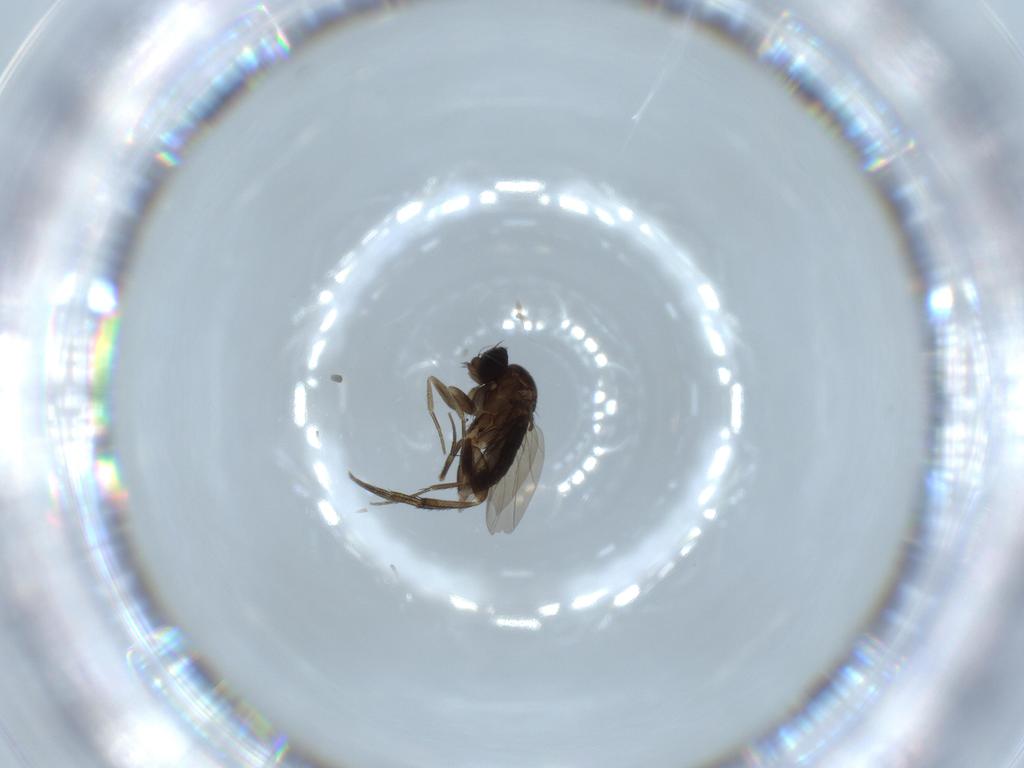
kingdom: Animalia
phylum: Arthropoda
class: Insecta
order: Diptera
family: Phoridae
